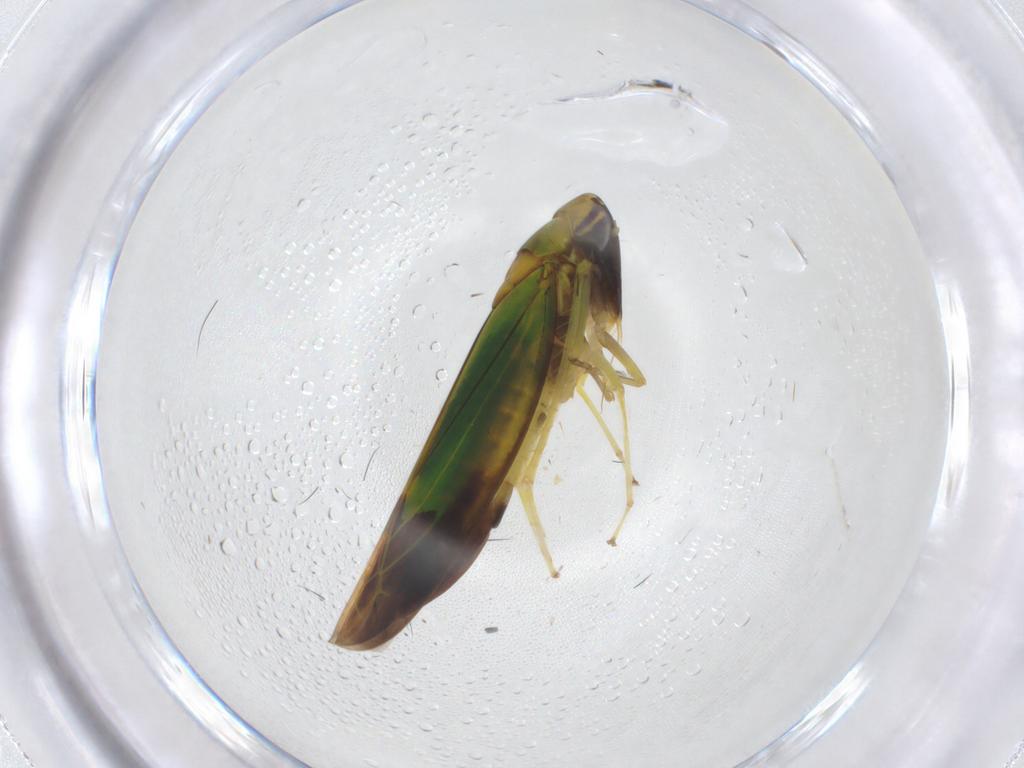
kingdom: Animalia
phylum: Arthropoda
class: Insecta
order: Hemiptera
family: Cicadellidae
